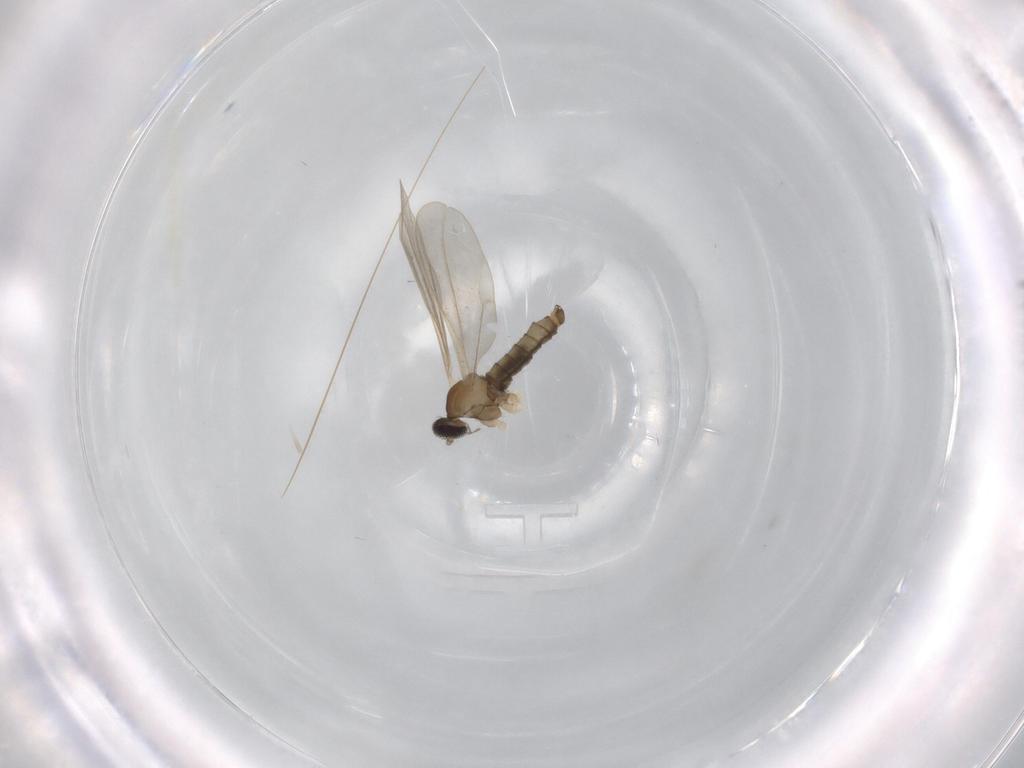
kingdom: Animalia
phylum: Arthropoda
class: Insecta
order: Diptera
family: Cecidomyiidae
